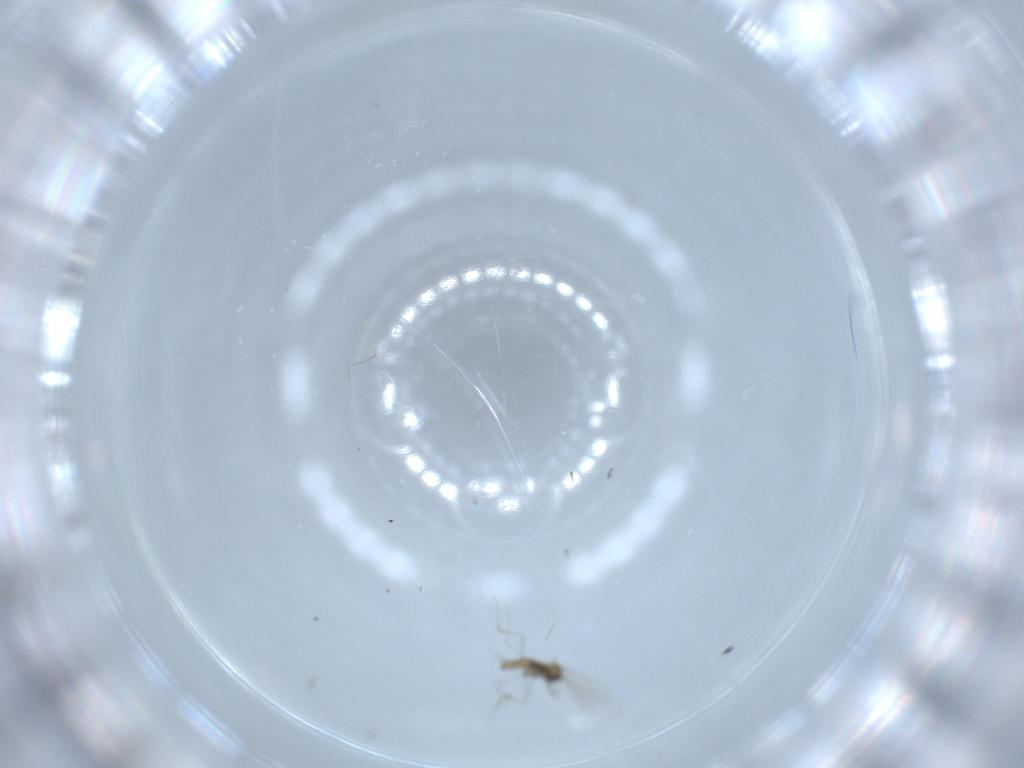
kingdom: Animalia
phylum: Arthropoda
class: Insecta
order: Diptera
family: Cecidomyiidae
